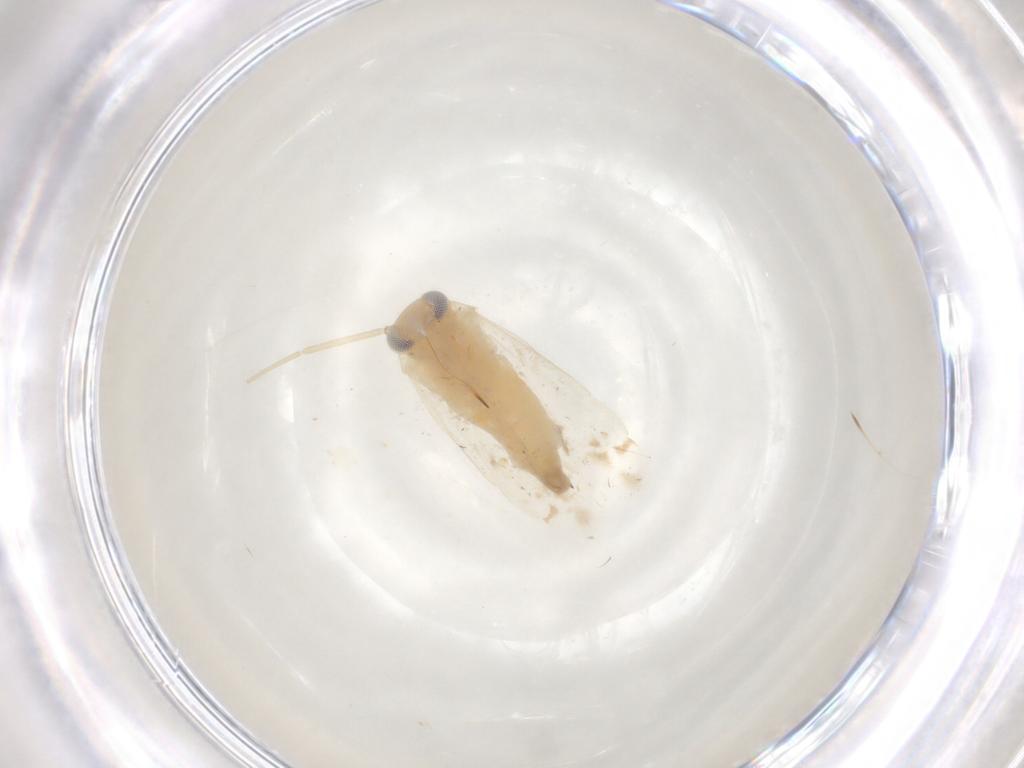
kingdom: Animalia
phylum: Arthropoda
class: Insecta
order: Hemiptera
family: Miridae
